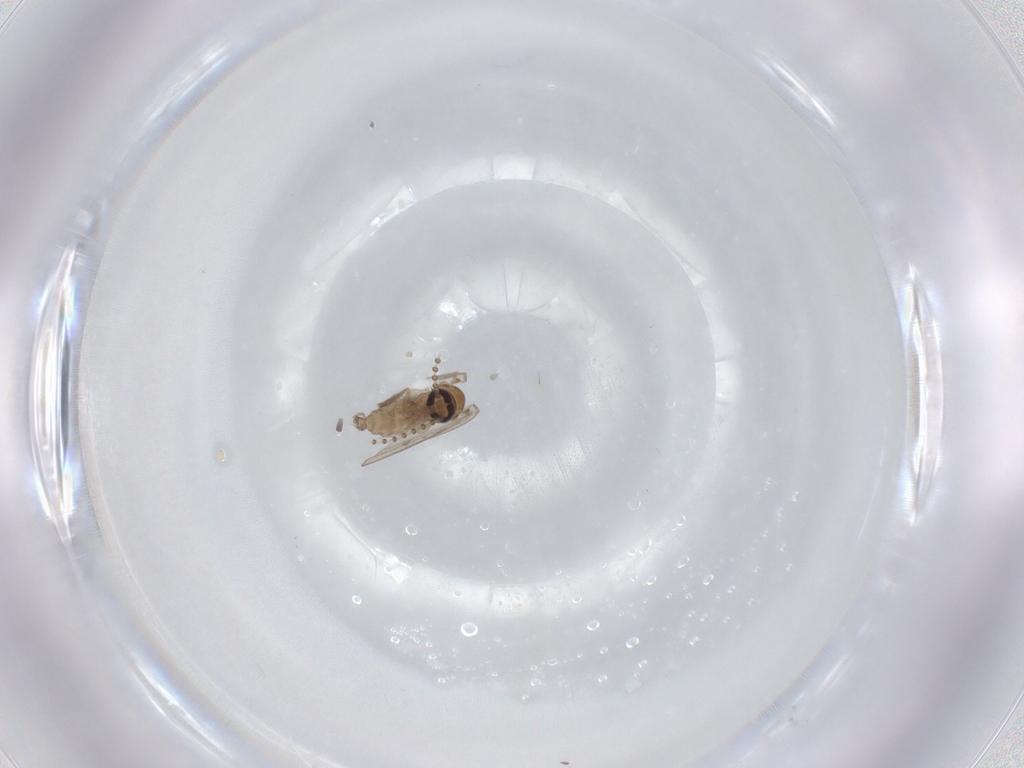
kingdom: Animalia
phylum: Arthropoda
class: Insecta
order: Diptera
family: Psychodidae
